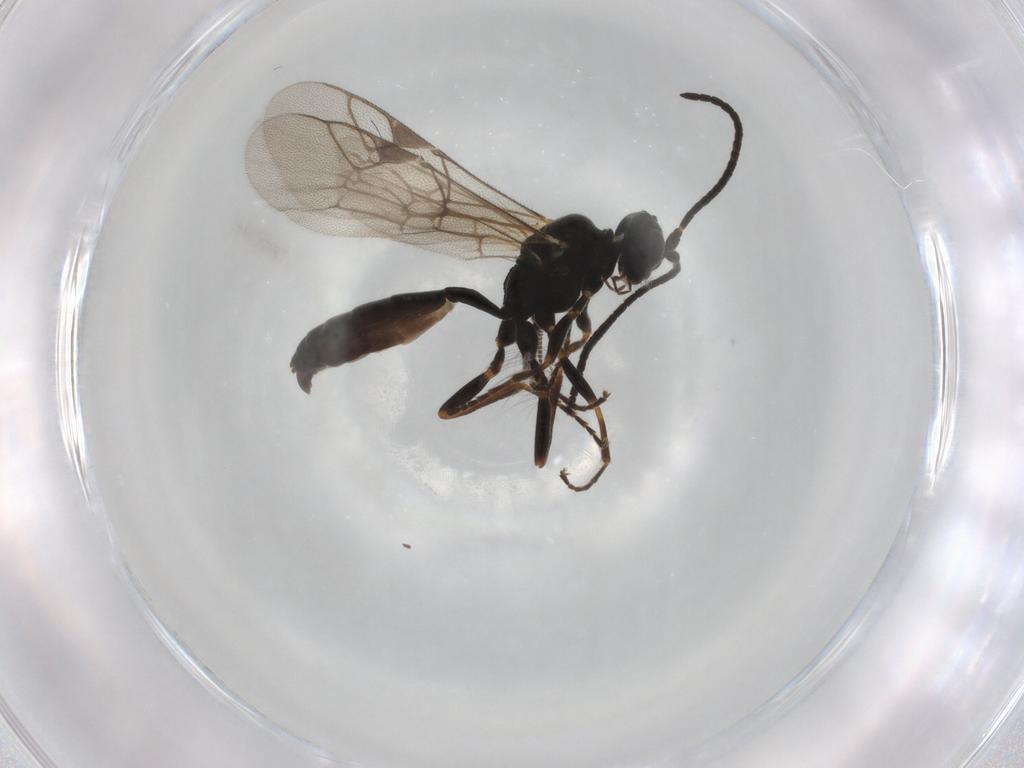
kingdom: Animalia
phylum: Arthropoda
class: Insecta
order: Hymenoptera
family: Ichneumonidae
